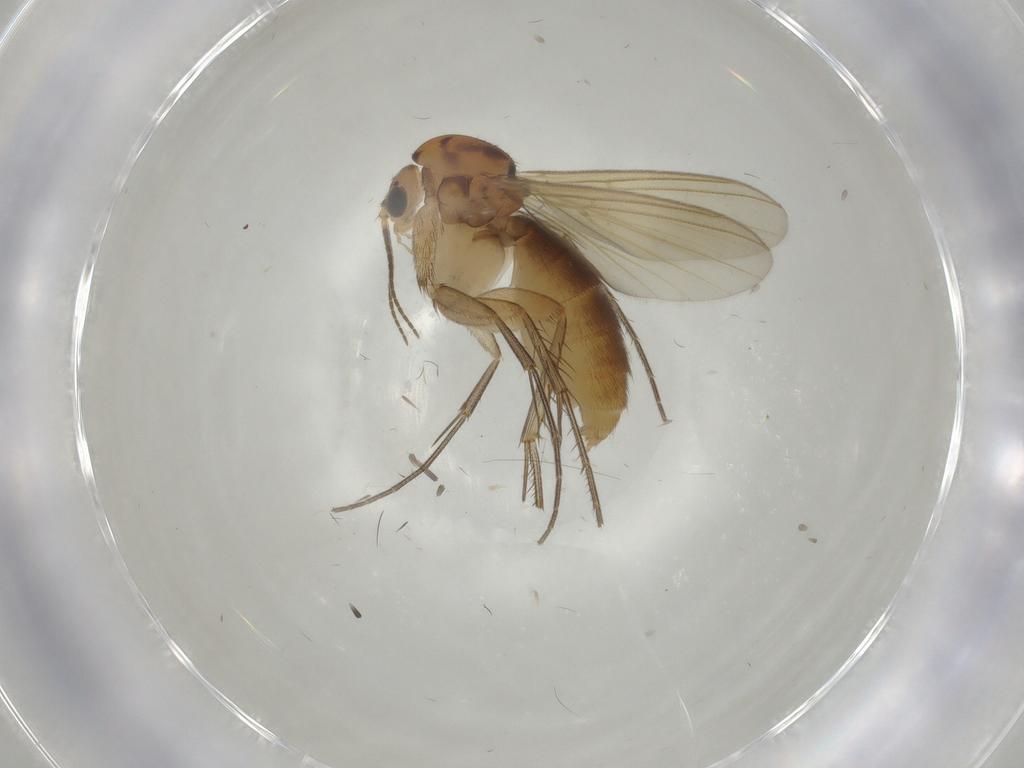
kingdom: Animalia
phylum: Arthropoda
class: Insecta
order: Diptera
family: Mycetophilidae
